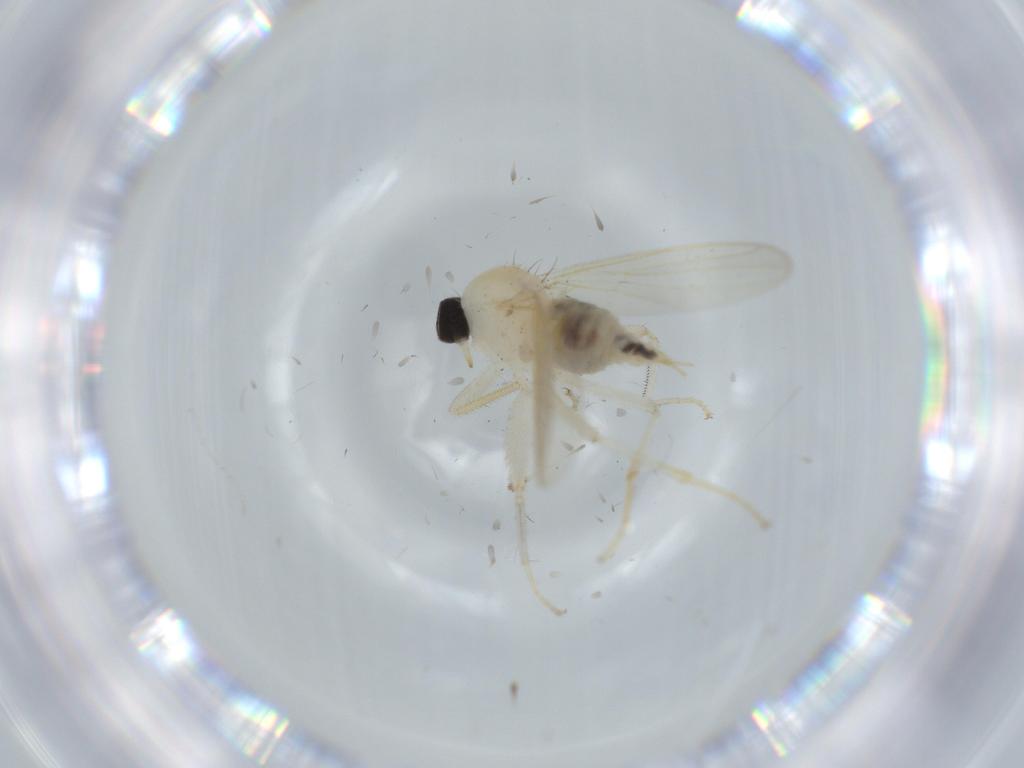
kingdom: Animalia
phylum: Arthropoda
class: Insecta
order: Diptera
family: Hybotidae
